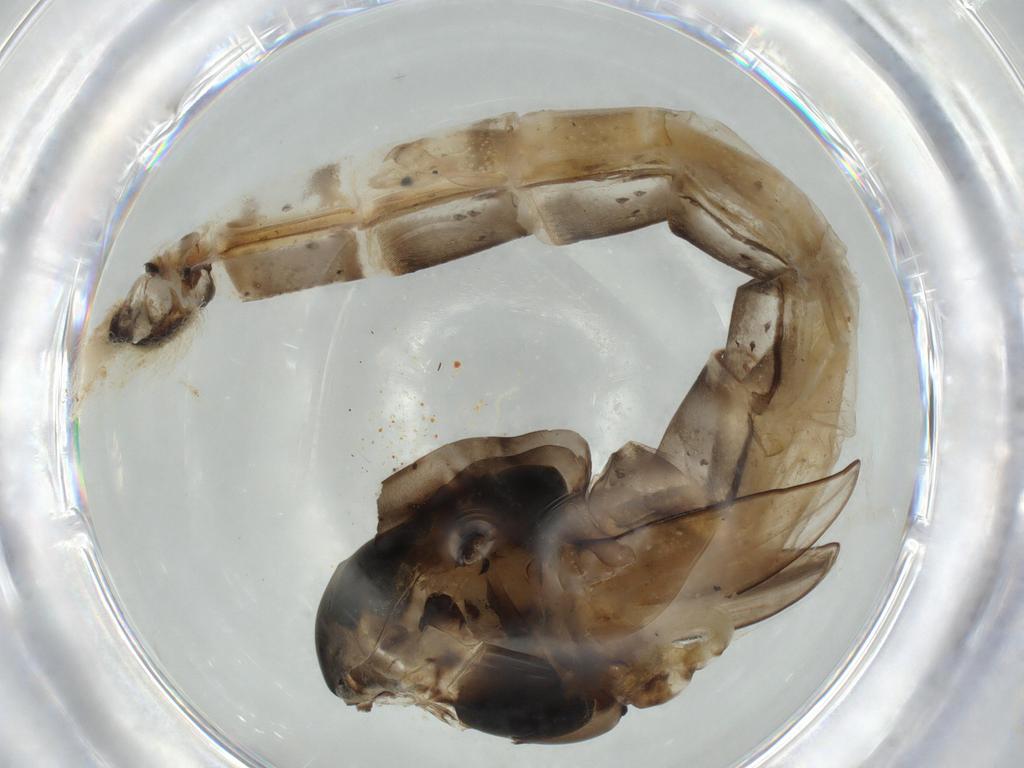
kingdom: Animalia
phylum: Arthropoda
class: Insecta
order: Diptera
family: Chironomidae
